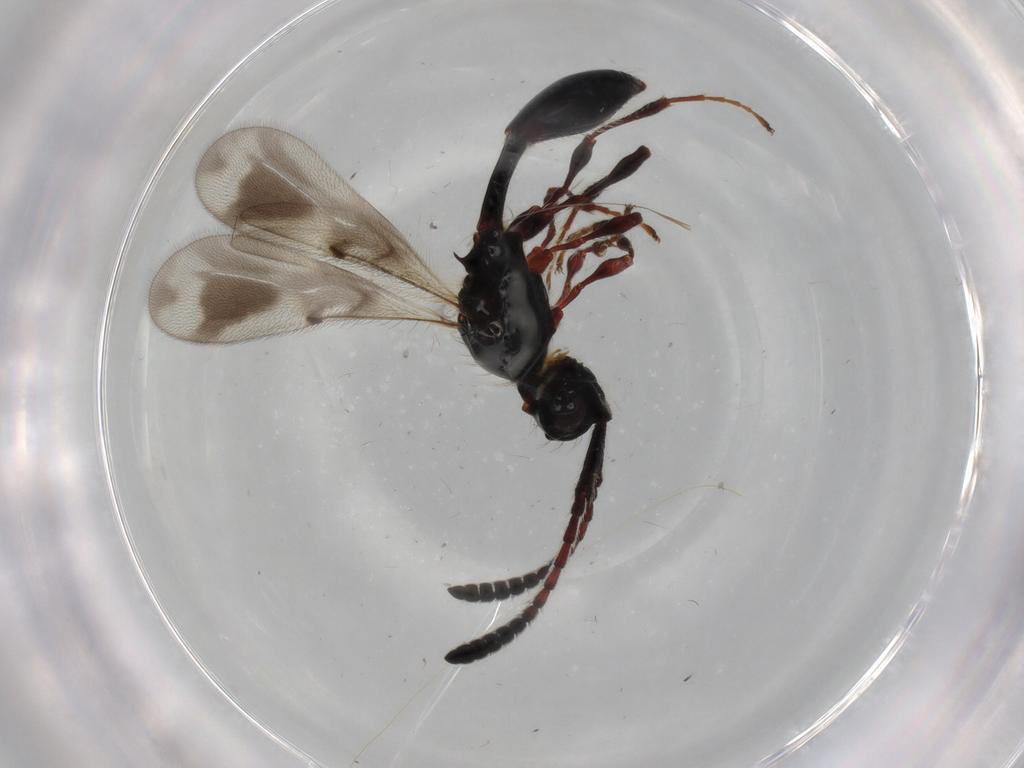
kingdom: Animalia
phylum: Arthropoda
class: Insecta
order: Hymenoptera
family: Diapriidae
